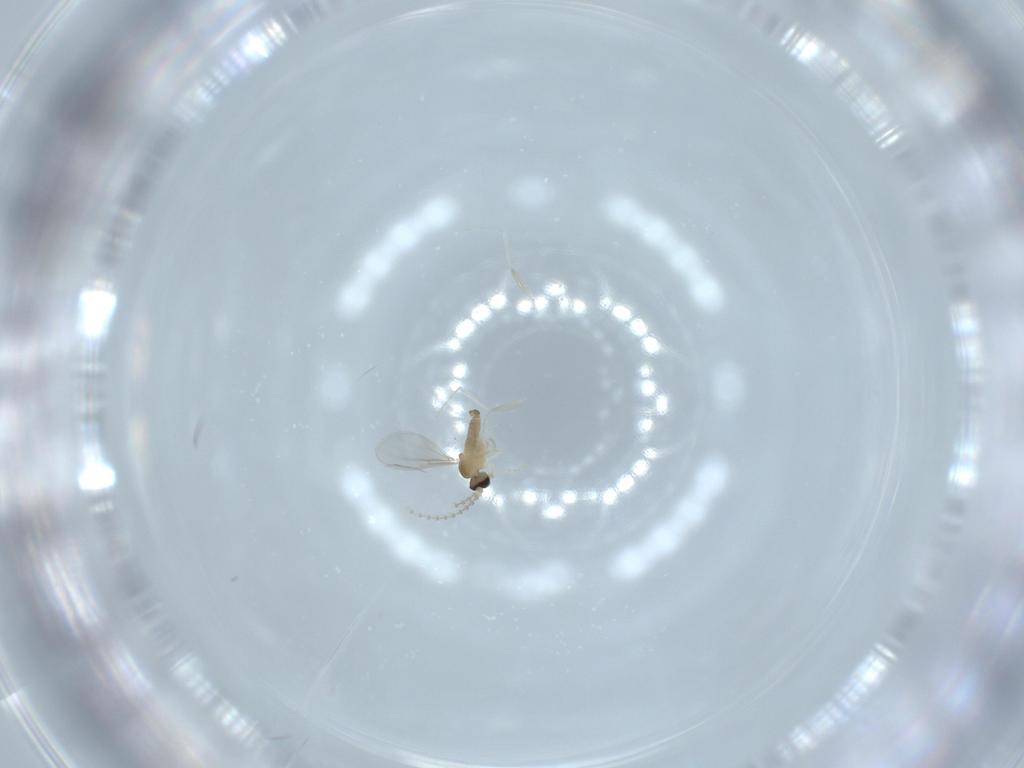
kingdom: Animalia
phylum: Arthropoda
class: Insecta
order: Diptera
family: Cecidomyiidae
